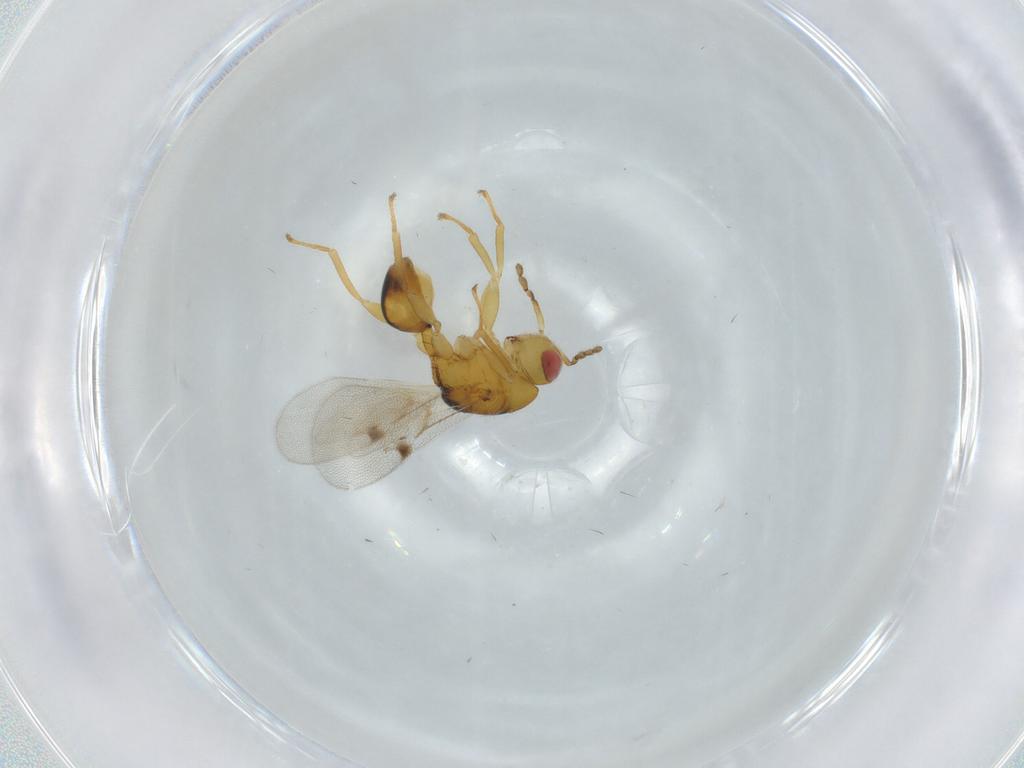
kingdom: Animalia
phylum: Arthropoda
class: Insecta
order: Hymenoptera
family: Eurytomidae
